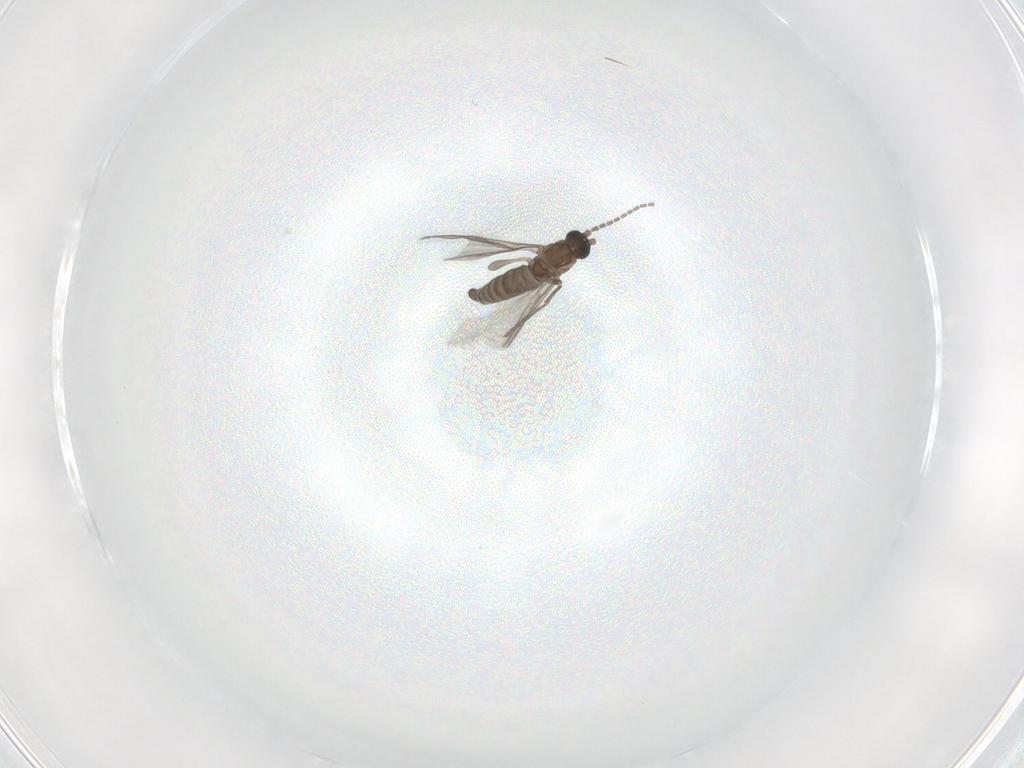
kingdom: Animalia
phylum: Arthropoda
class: Insecta
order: Diptera
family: Sciaridae
